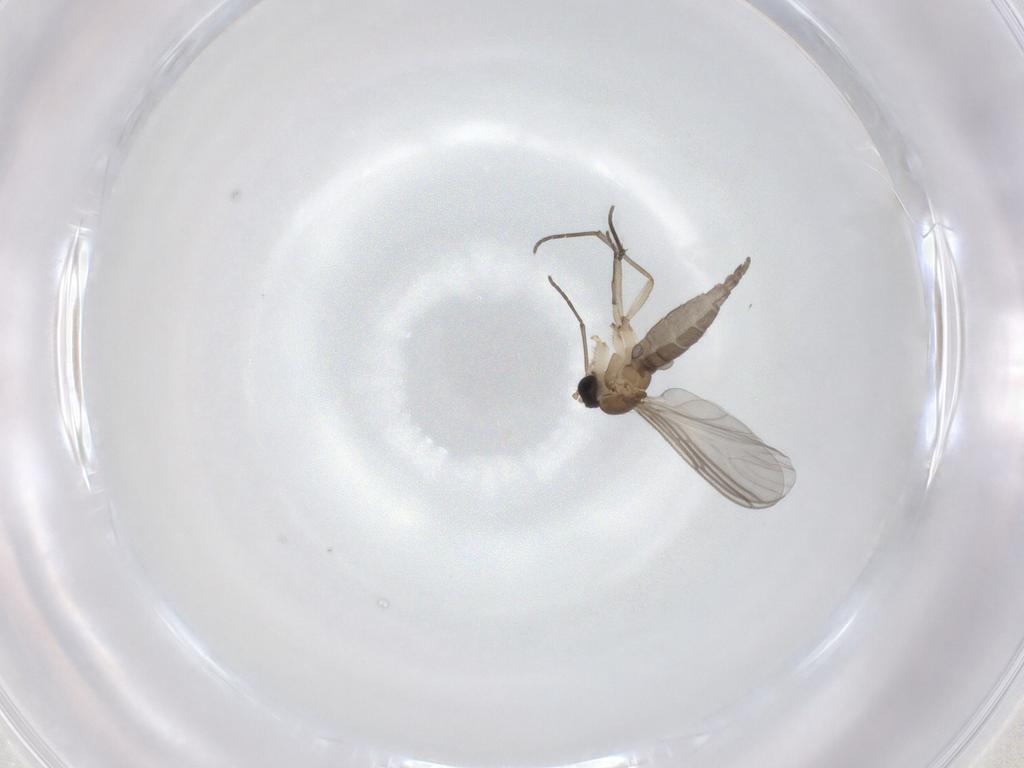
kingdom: Animalia
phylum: Arthropoda
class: Insecta
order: Diptera
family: Sciaridae
